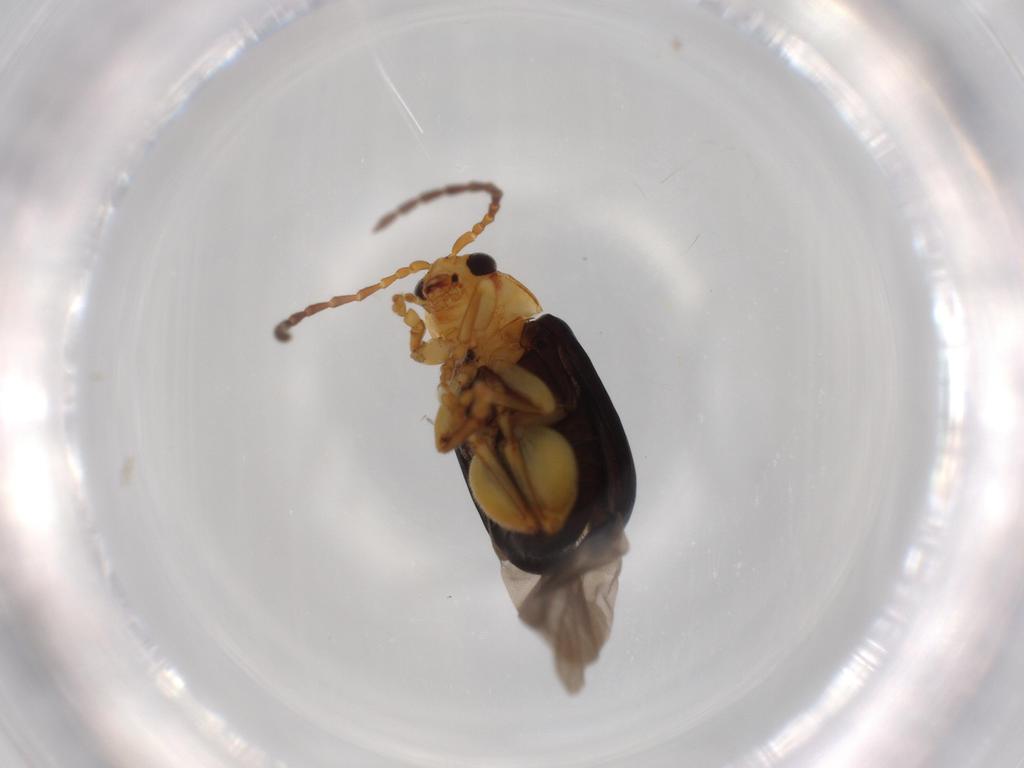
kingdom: Animalia
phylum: Arthropoda
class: Insecta
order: Coleoptera
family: Chrysomelidae
